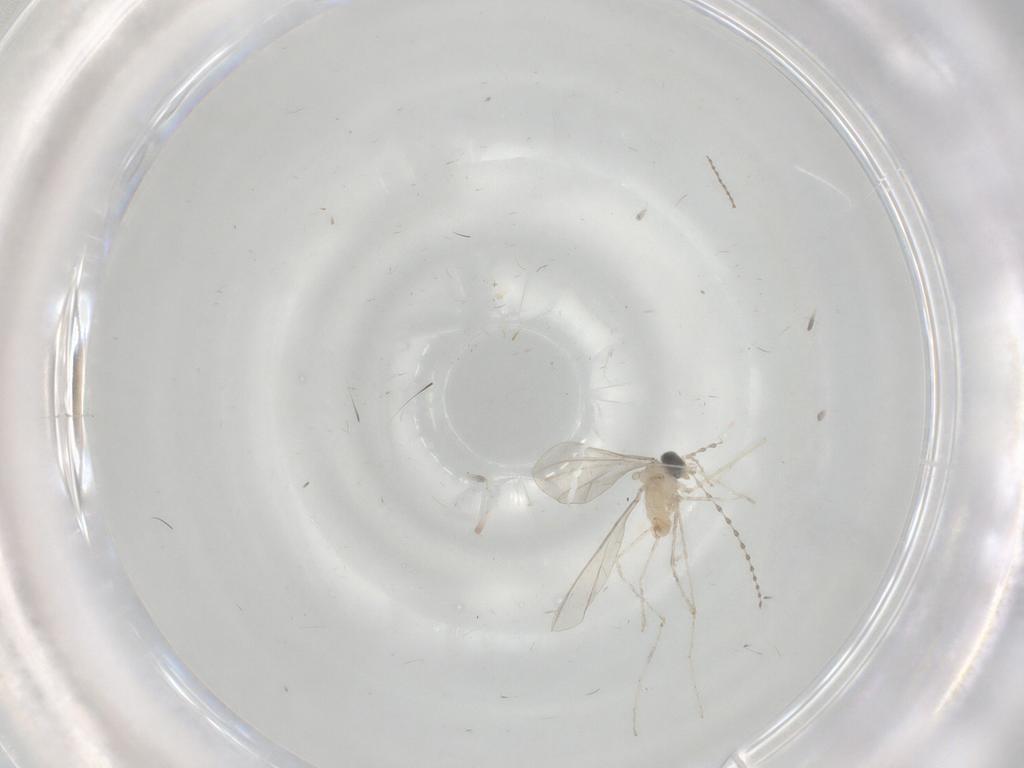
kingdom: Animalia
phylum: Arthropoda
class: Insecta
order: Diptera
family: Cecidomyiidae
